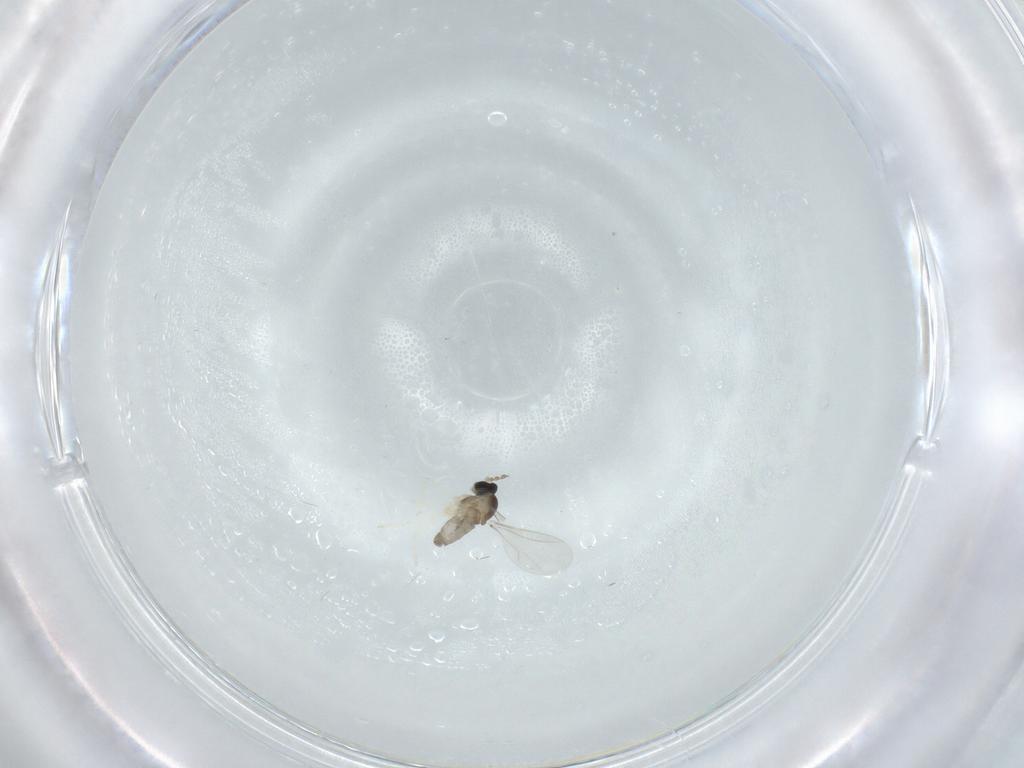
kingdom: Animalia
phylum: Arthropoda
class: Insecta
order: Diptera
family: Cecidomyiidae
